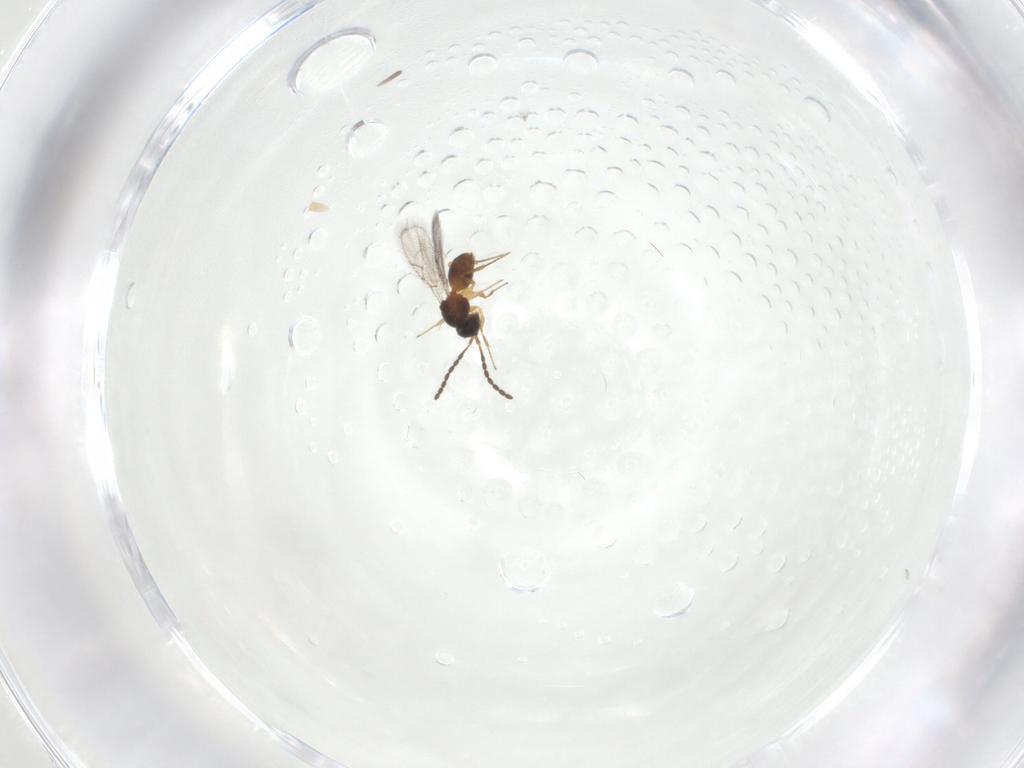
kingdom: Animalia
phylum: Arthropoda
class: Insecta
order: Hymenoptera
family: Figitidae
